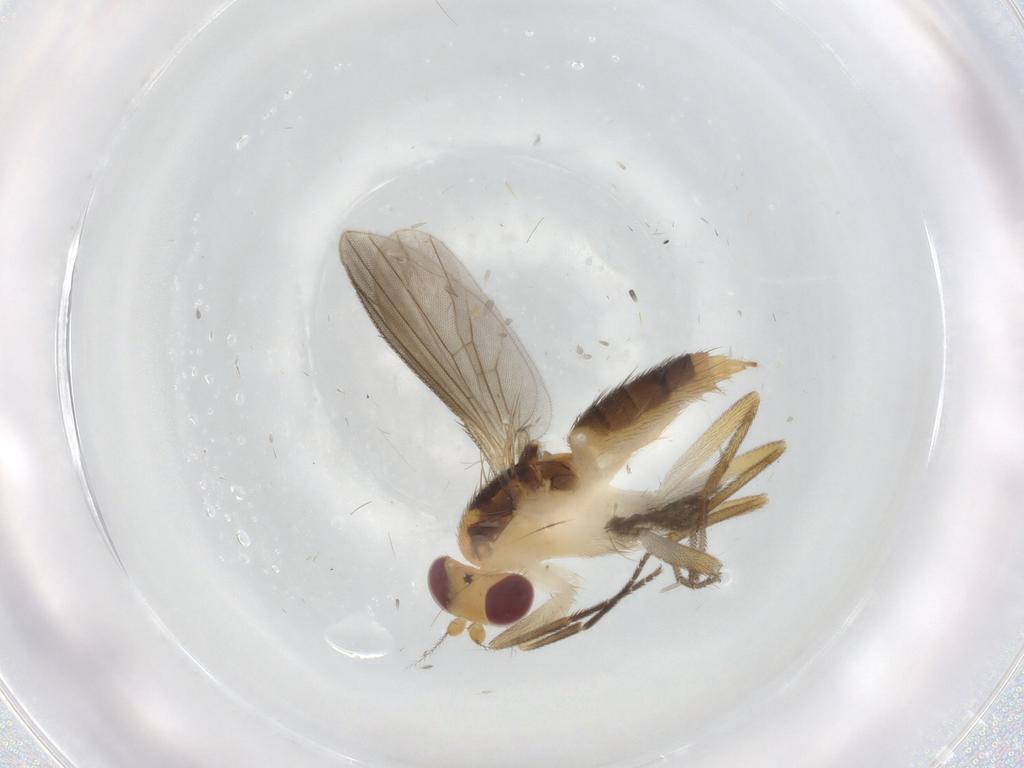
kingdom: Animalia
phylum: Arthropoda
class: Insecta
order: Diptera
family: Agromyzidae
